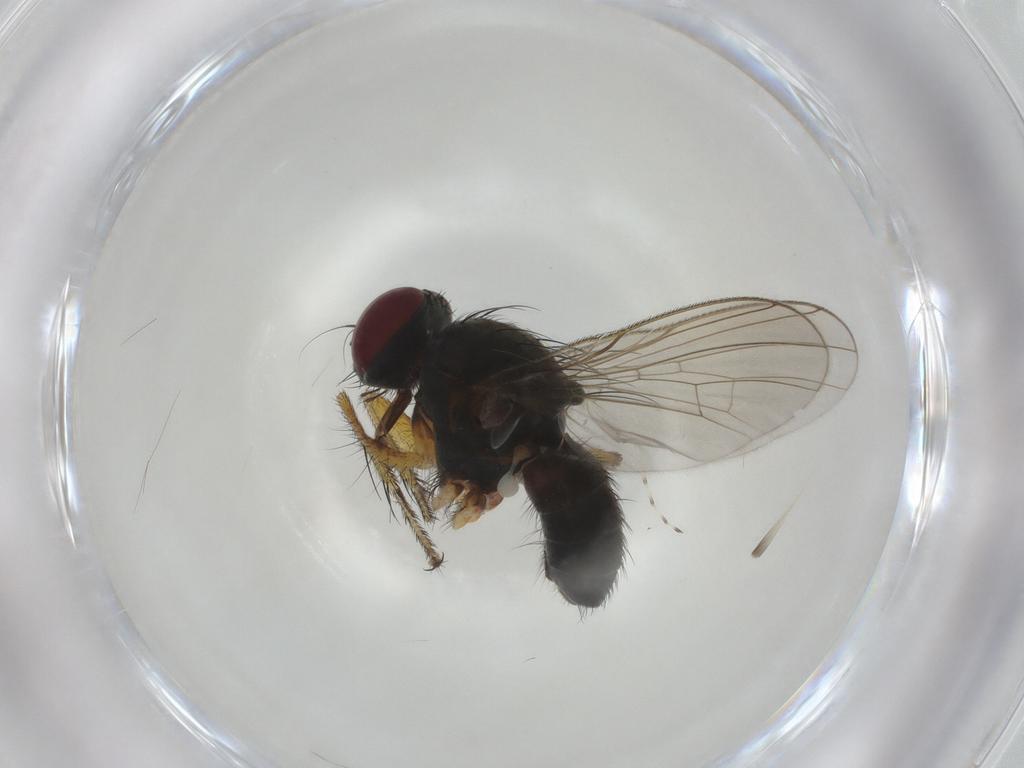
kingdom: Animalia
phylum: Arthropoda
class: Insecta
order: Diptera
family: Muscidae
